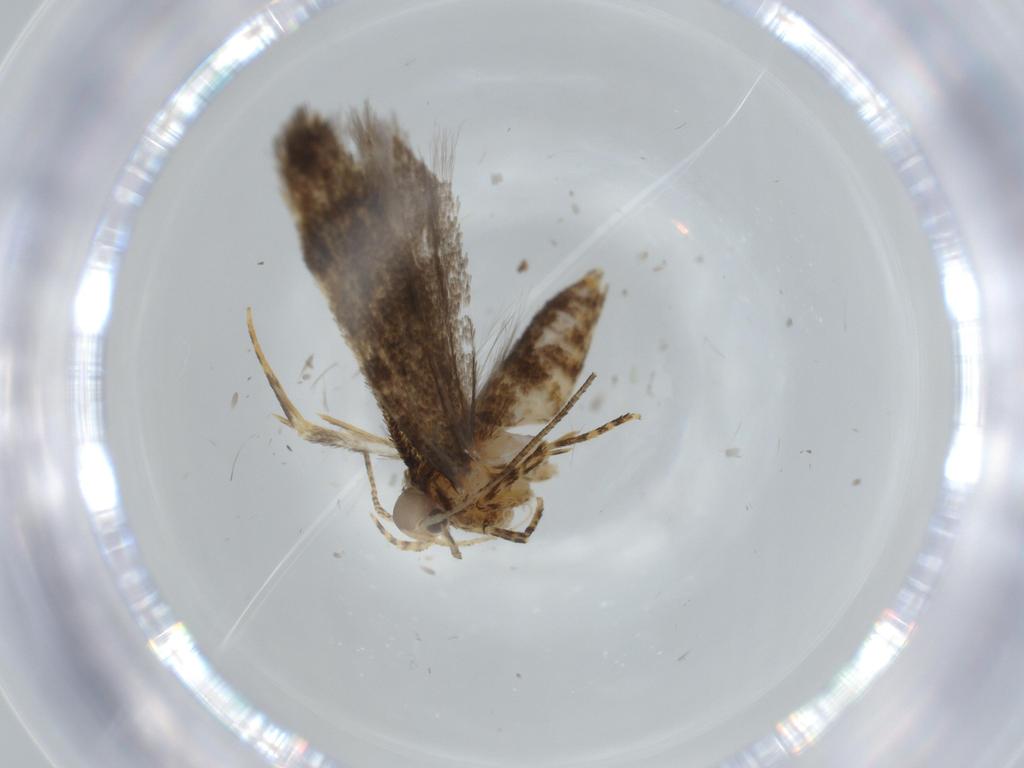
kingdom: Animalia
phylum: Arthropoda
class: Insecta
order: Lepidoptera
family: Oecophoridae
